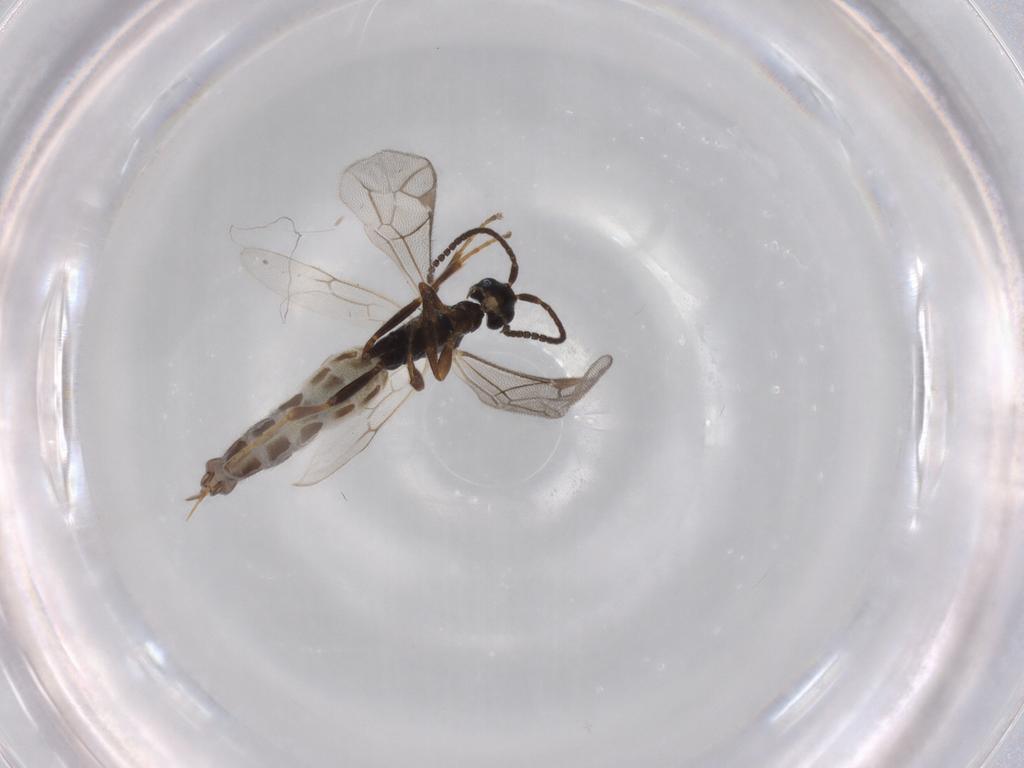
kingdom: Animalia
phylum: Arthropoda
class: Insecta
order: Hymenoptera
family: Ichneumonidae
